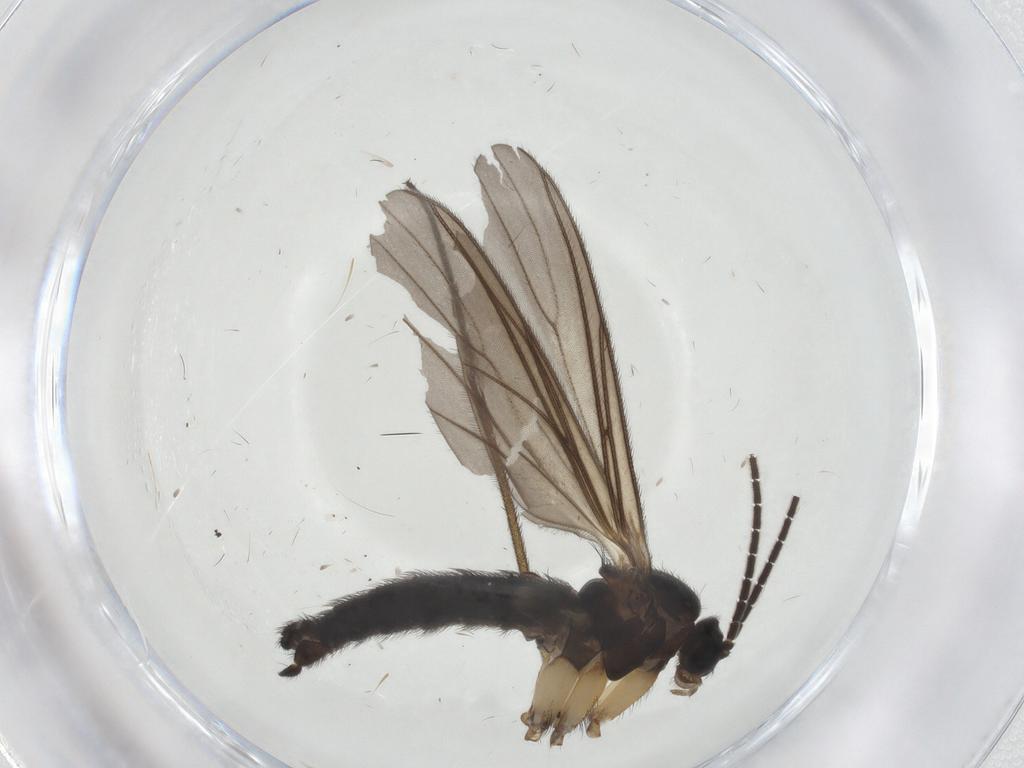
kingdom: Animalia
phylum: Arthropoda
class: Insecta
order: Diptera
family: Sciaridae
